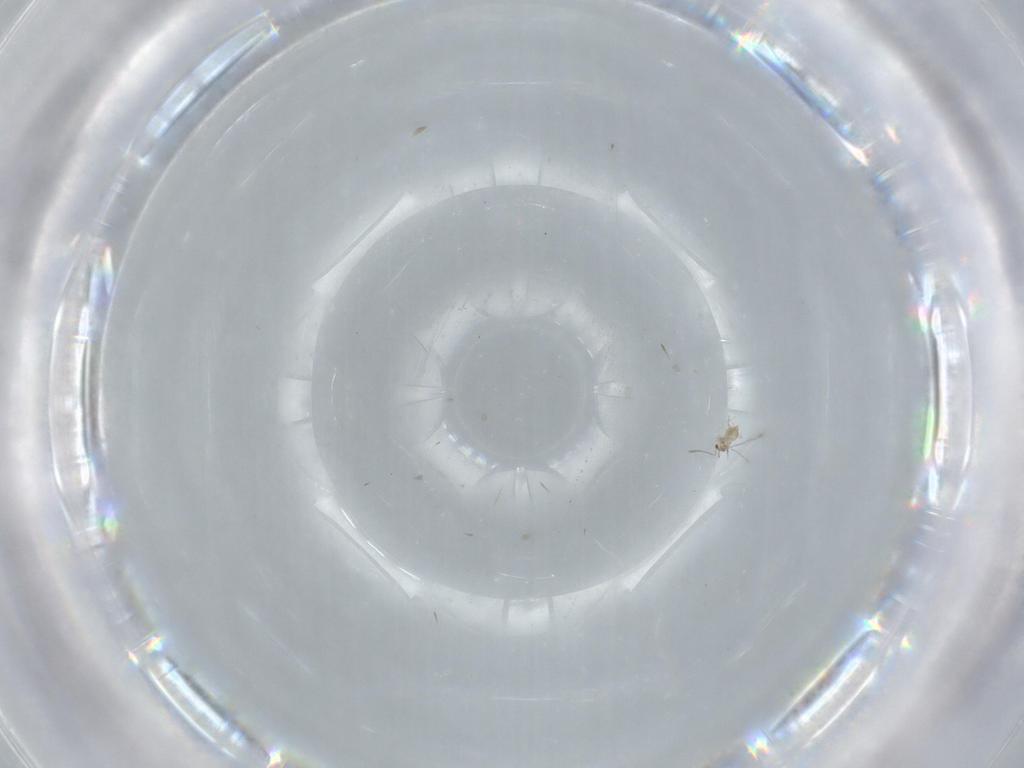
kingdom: Animalia
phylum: Arthropoda
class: Insecta
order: Hymenoptera
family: Mymaridae
